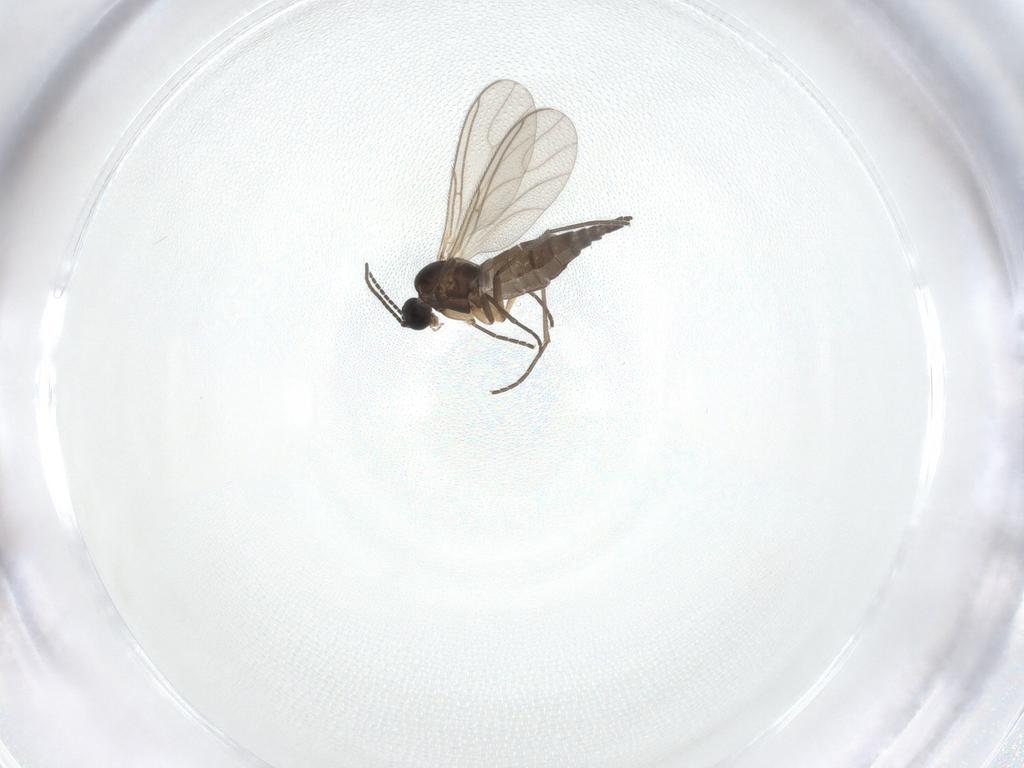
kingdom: Animalia
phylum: Arthropoda
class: Insecta
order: Diptera
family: Sciaridae
